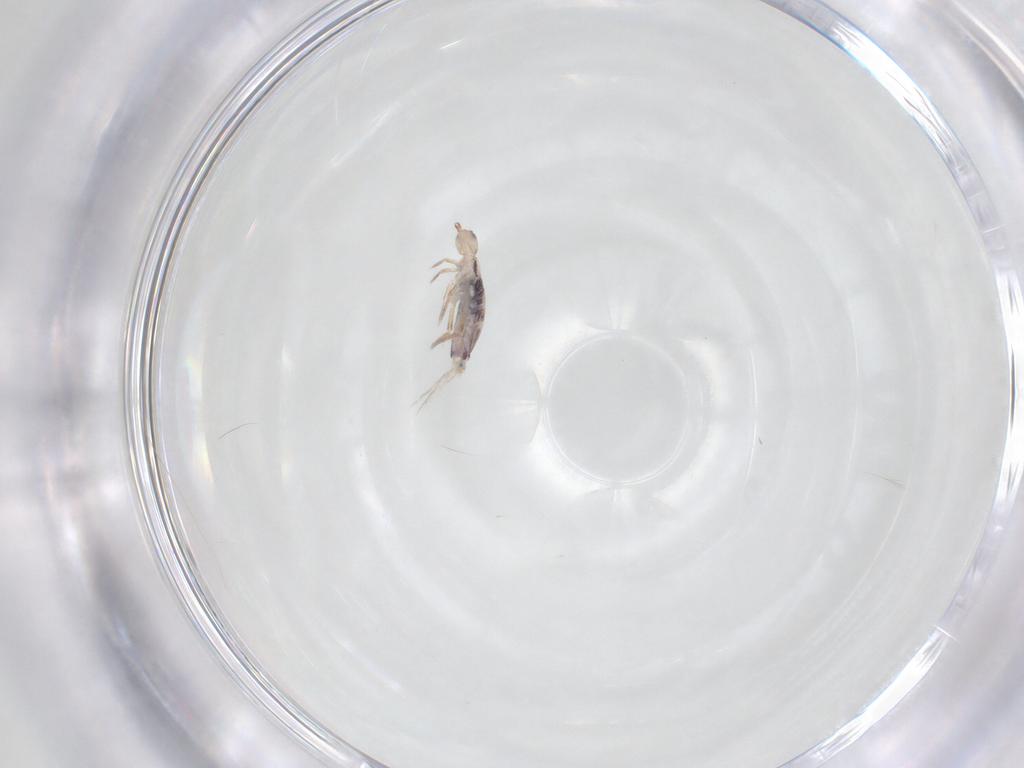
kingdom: Animalia
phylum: Arthropoda
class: Collembola
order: Entomobryomorpha
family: Entomobryidae
